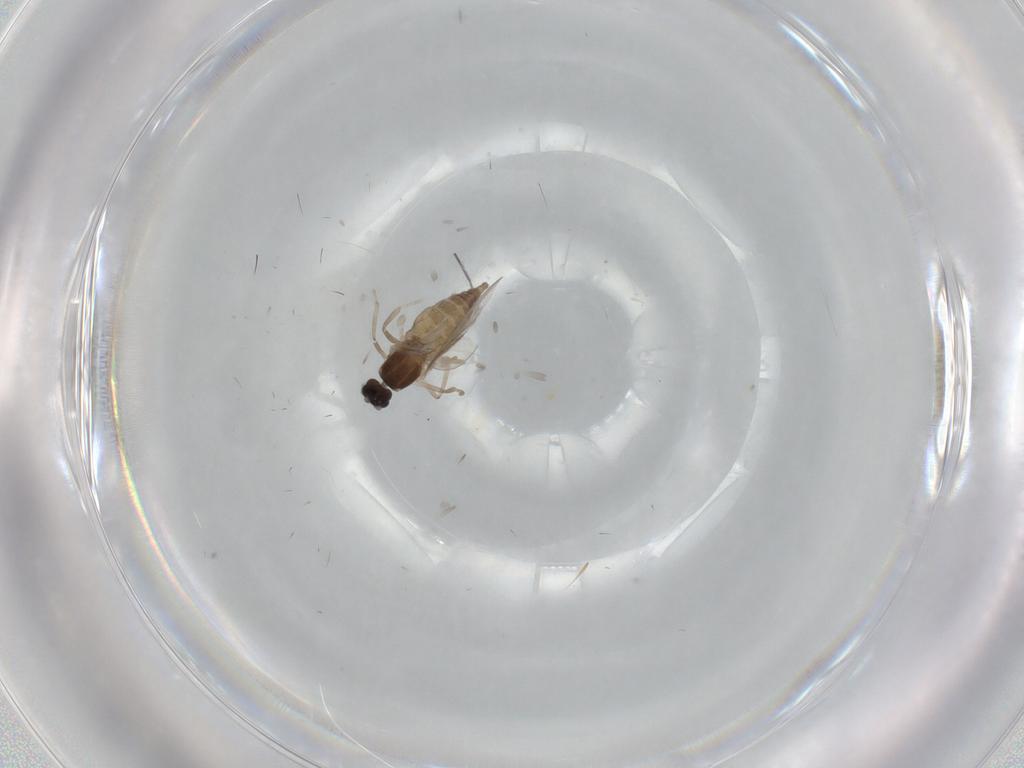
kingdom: Animalia
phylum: Arthropoda
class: Insecta
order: Diptera
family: Cecidomyiidae
